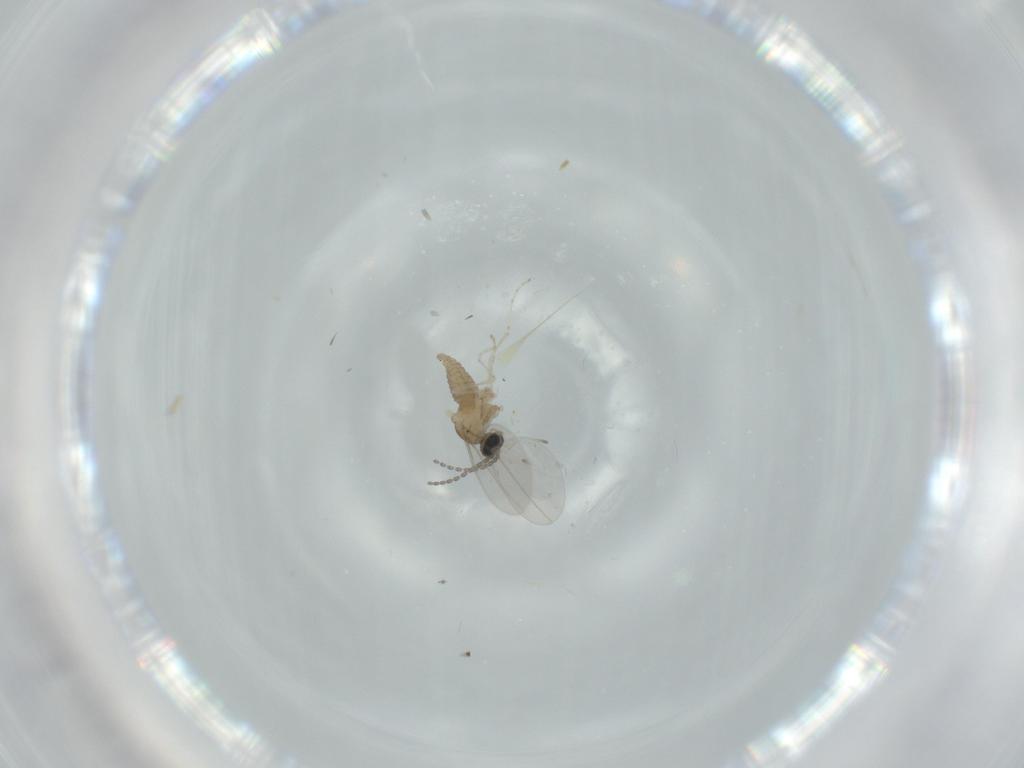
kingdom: Animalia
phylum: Arthropoda
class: Insecta
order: Diptera
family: Cecidomyiidae
